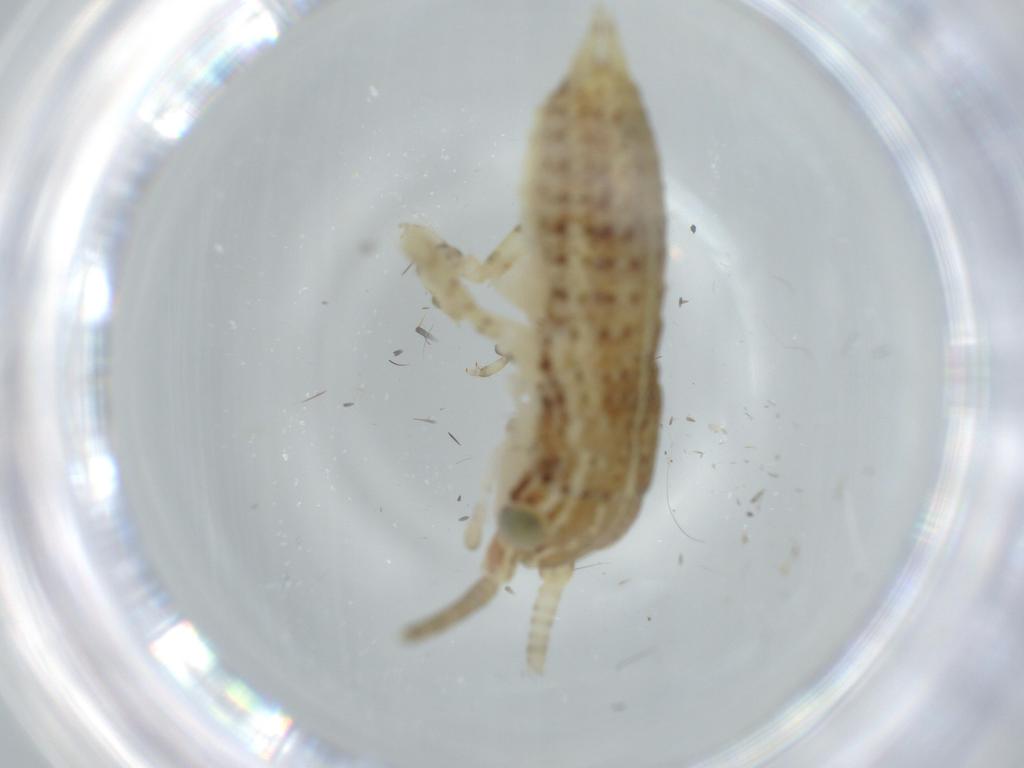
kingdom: Animalia
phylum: Arthropoda
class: Insecta
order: Orthoptera
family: Gryllidae
